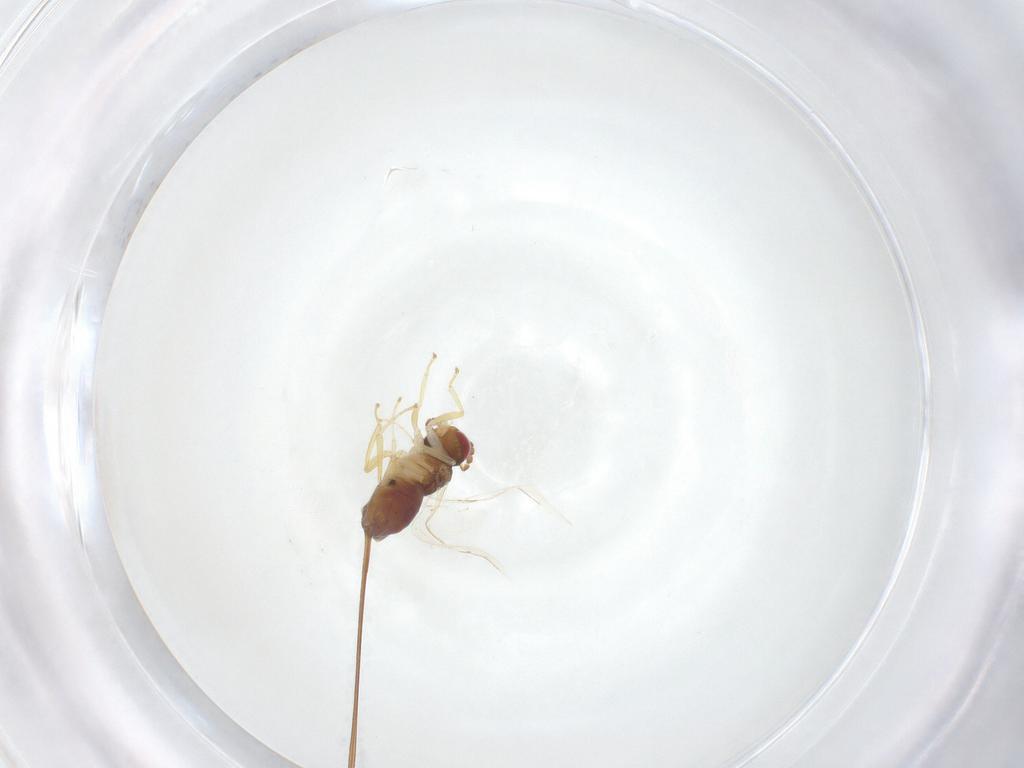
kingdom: Animalia
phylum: Arthropoda
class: Insecta
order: Hymenoptera
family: Pteromalidae
